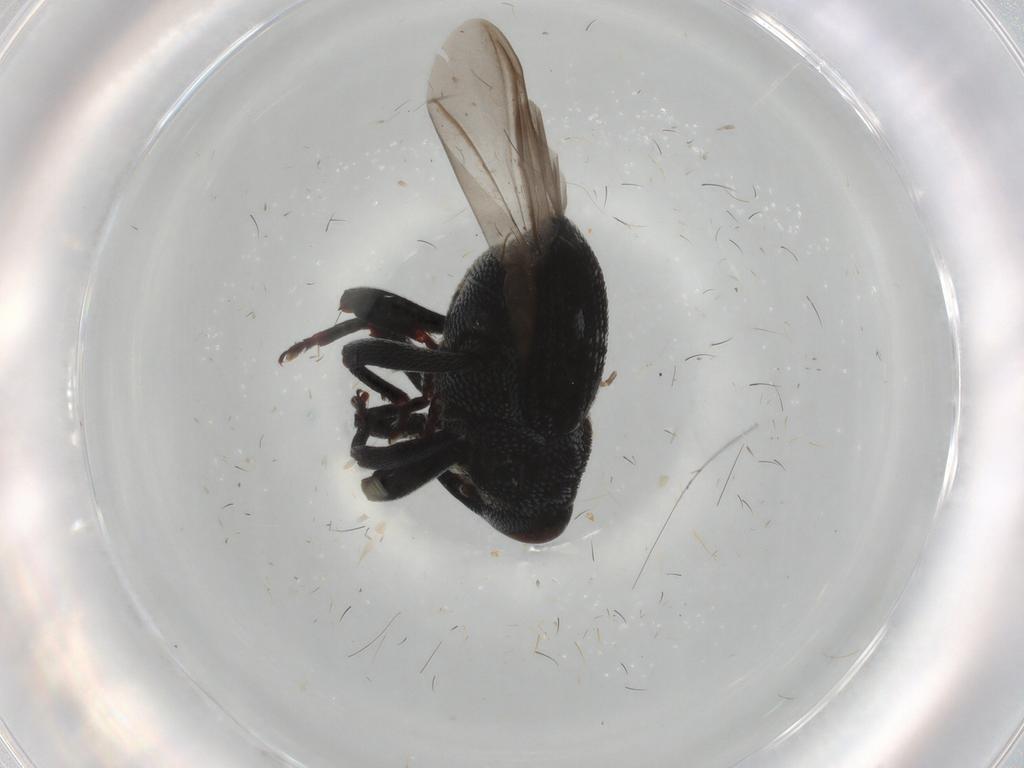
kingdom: Animalia
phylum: Arthropoda
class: Insecta
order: Coleoptera
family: Curculionidae
